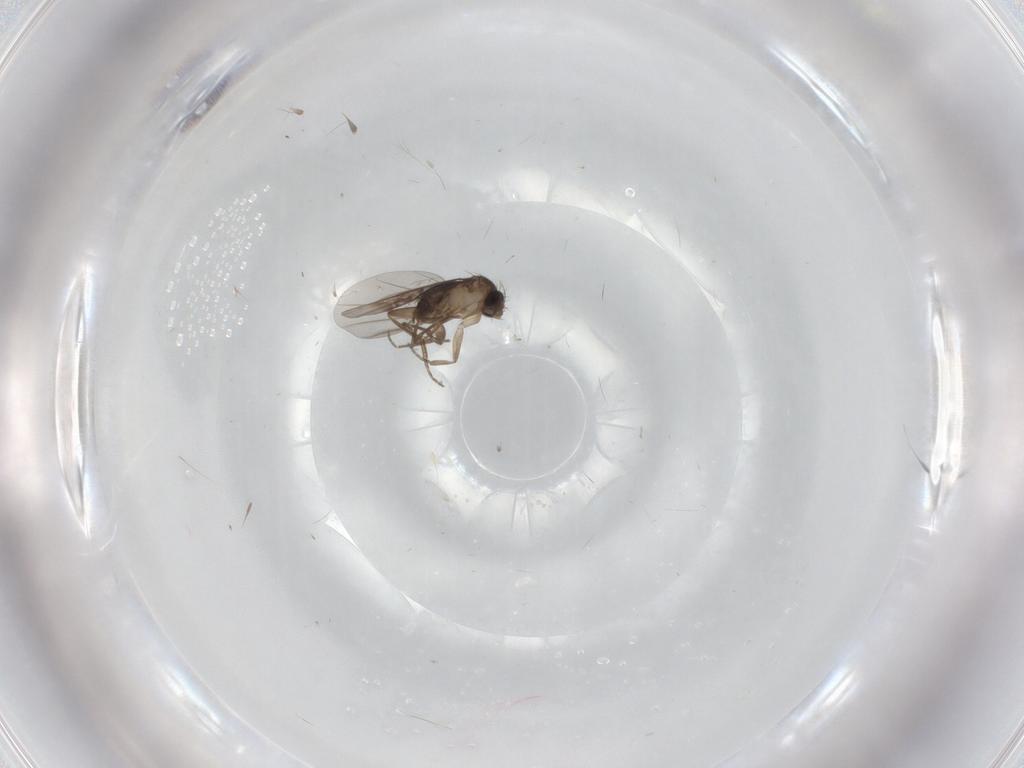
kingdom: Animalia
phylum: Arthropoda
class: Insecta
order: Diptera
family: Phoridae
